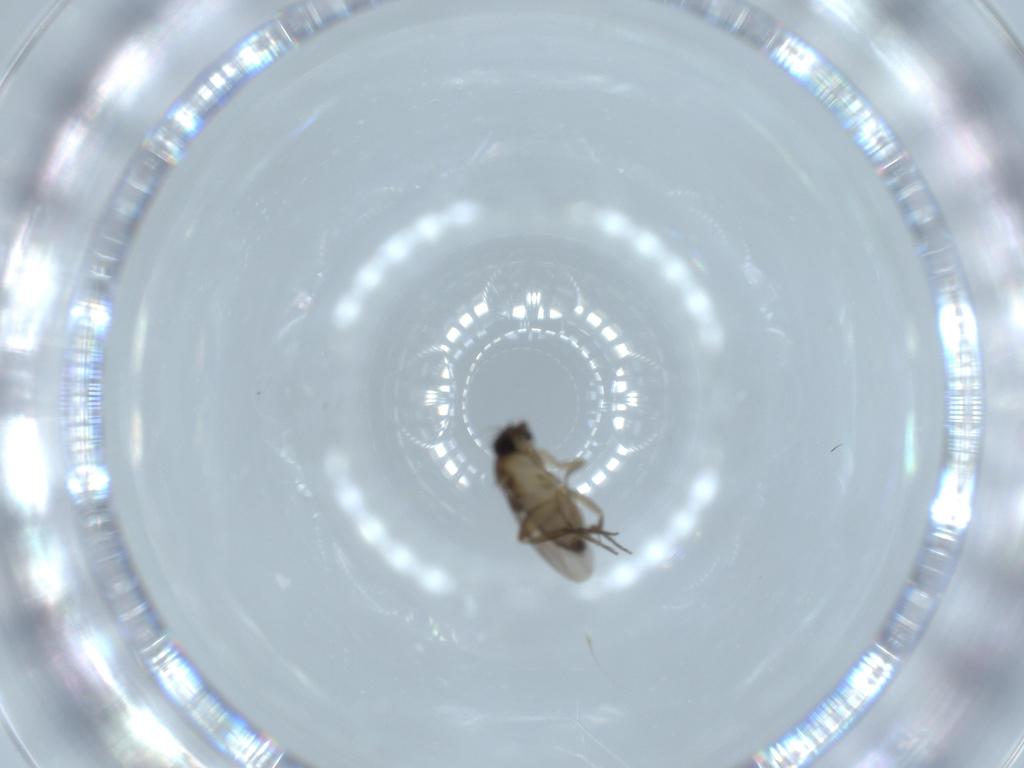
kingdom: Animalia
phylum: Arthropoda
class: Insecta
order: Diptera
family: Phoridae
